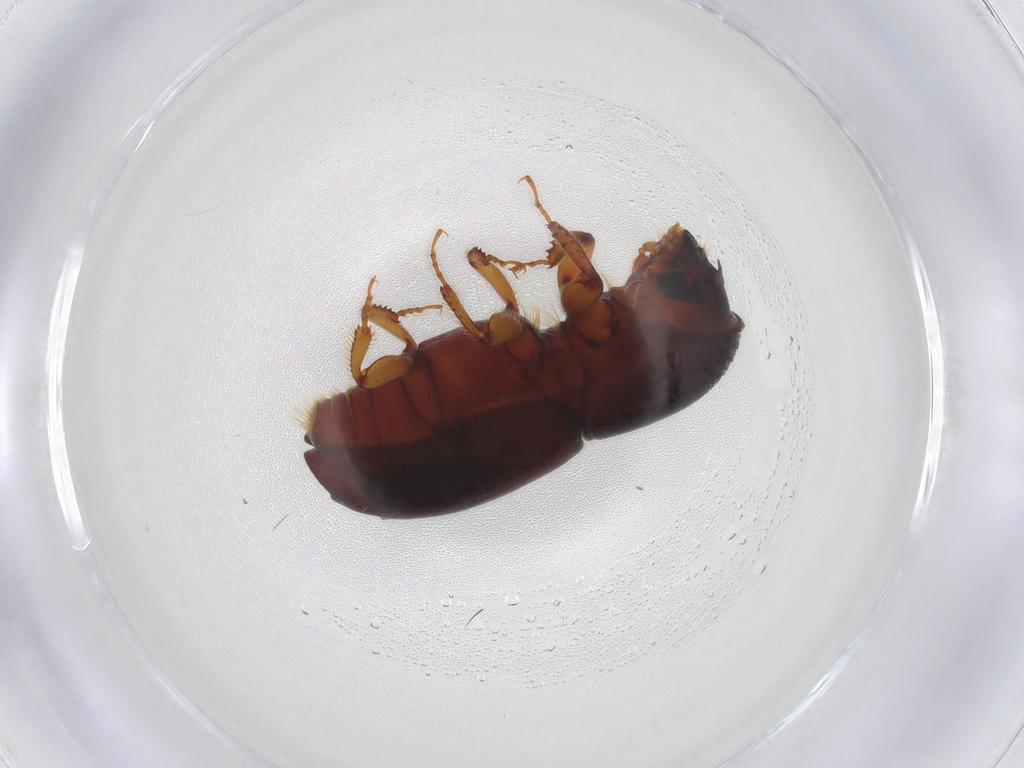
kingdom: Animalia
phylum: Arthropoda
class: Insecta
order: Coleoptera
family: Curculionidae
